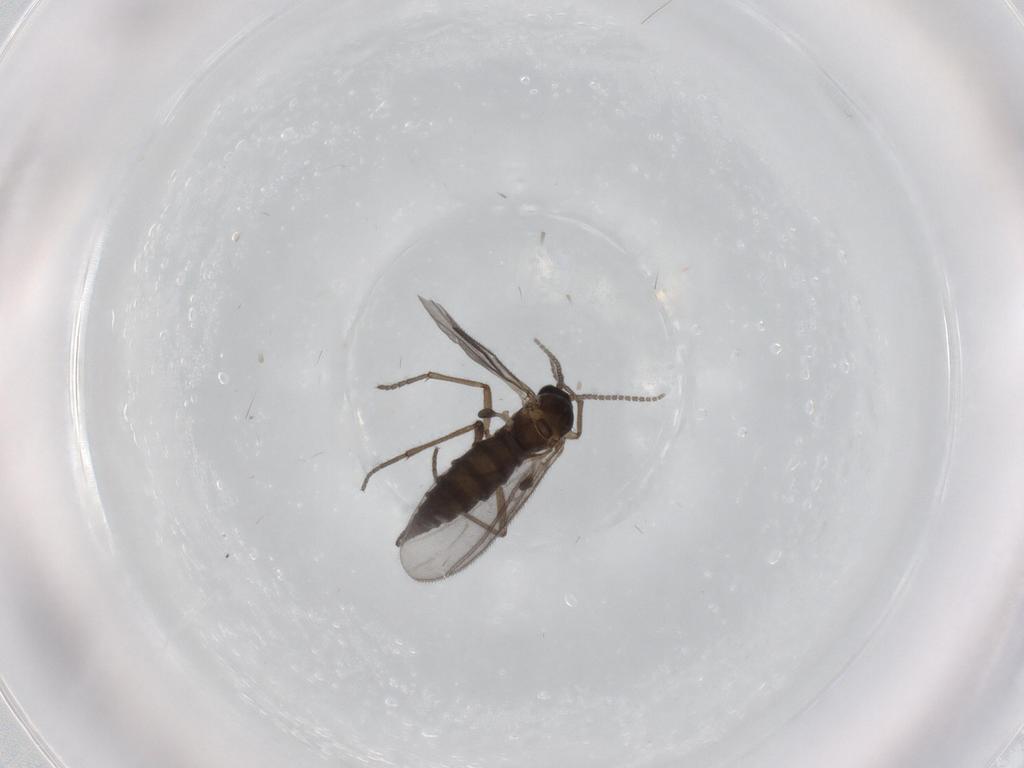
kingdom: Animalia
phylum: Arthropoda
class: Insecta
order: Diptera
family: Sciaridae
